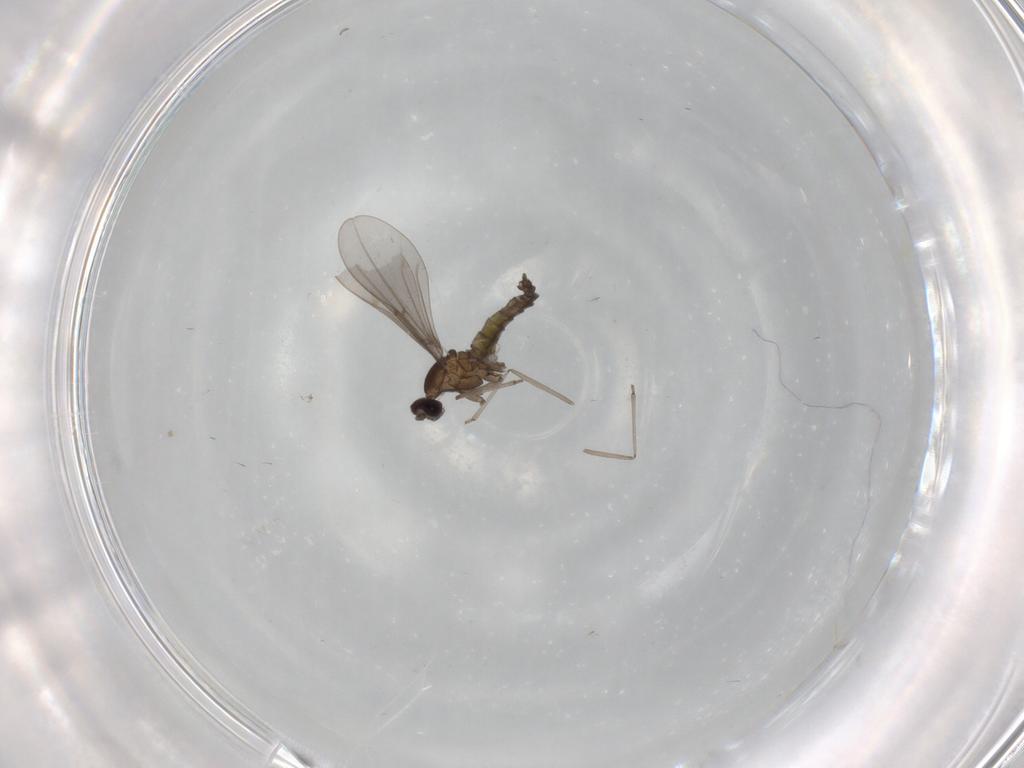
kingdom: Animalia
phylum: Arthropoda
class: Insecta
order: Diptera
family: Cecidomyiidae
